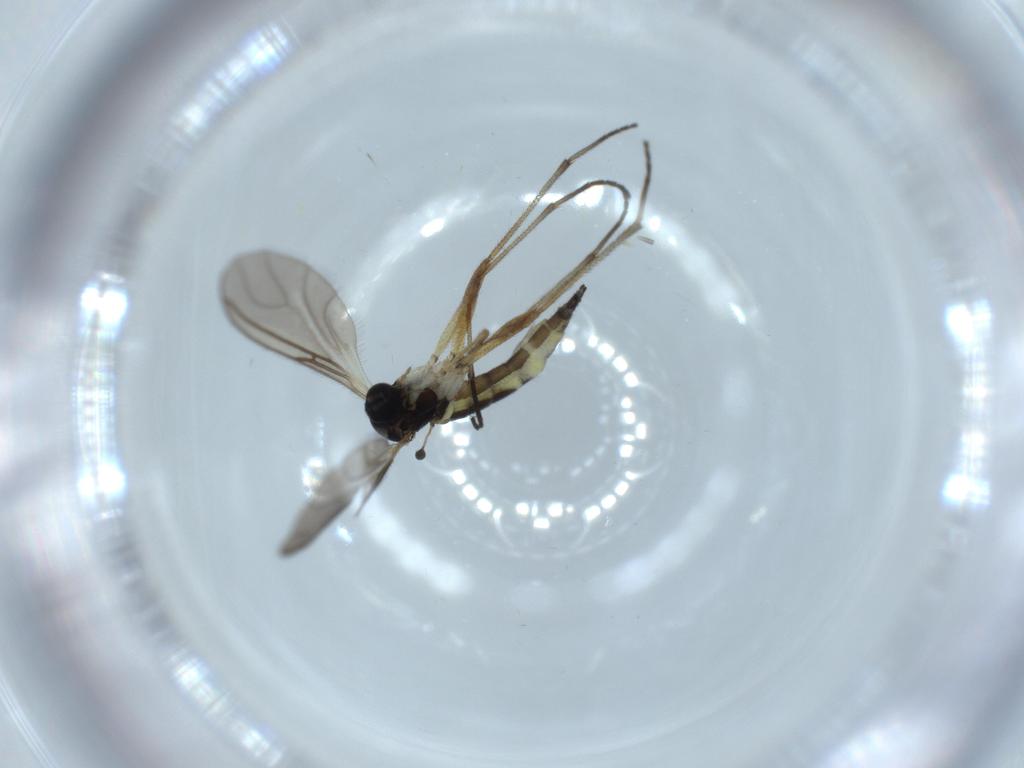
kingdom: Animalia
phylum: Arthropoda
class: Insecta
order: Diptera
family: Sciaridae
